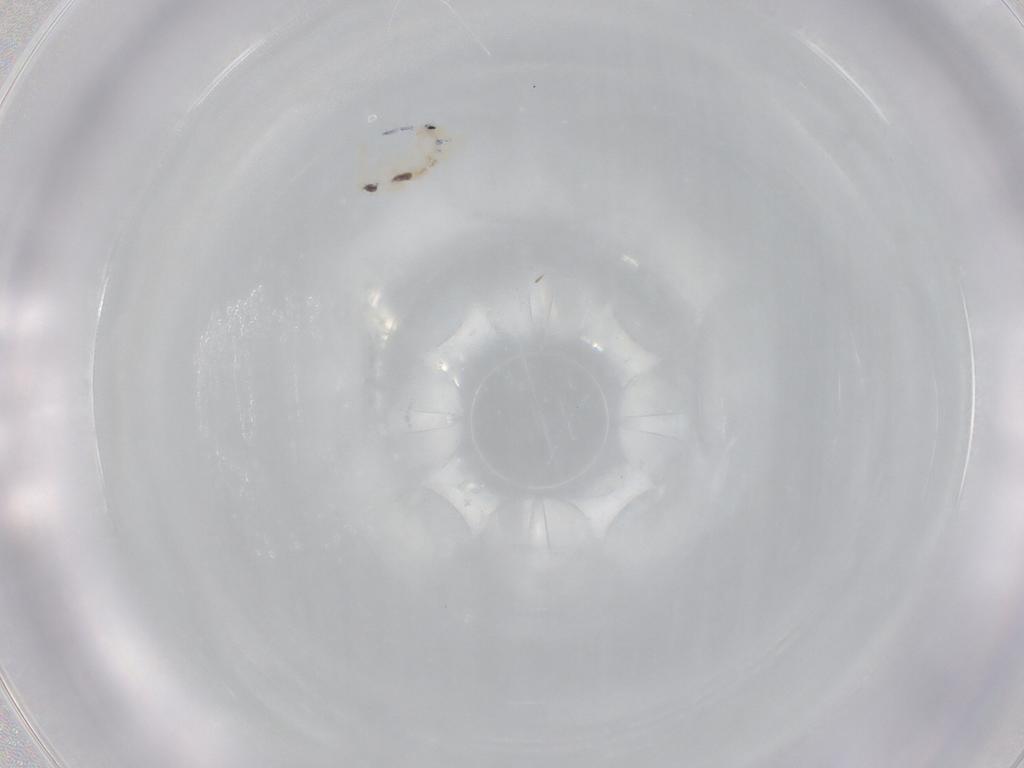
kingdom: Animalia
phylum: Arthropoda
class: Collembola
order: Entomobryomorpha
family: Entomobryidae
